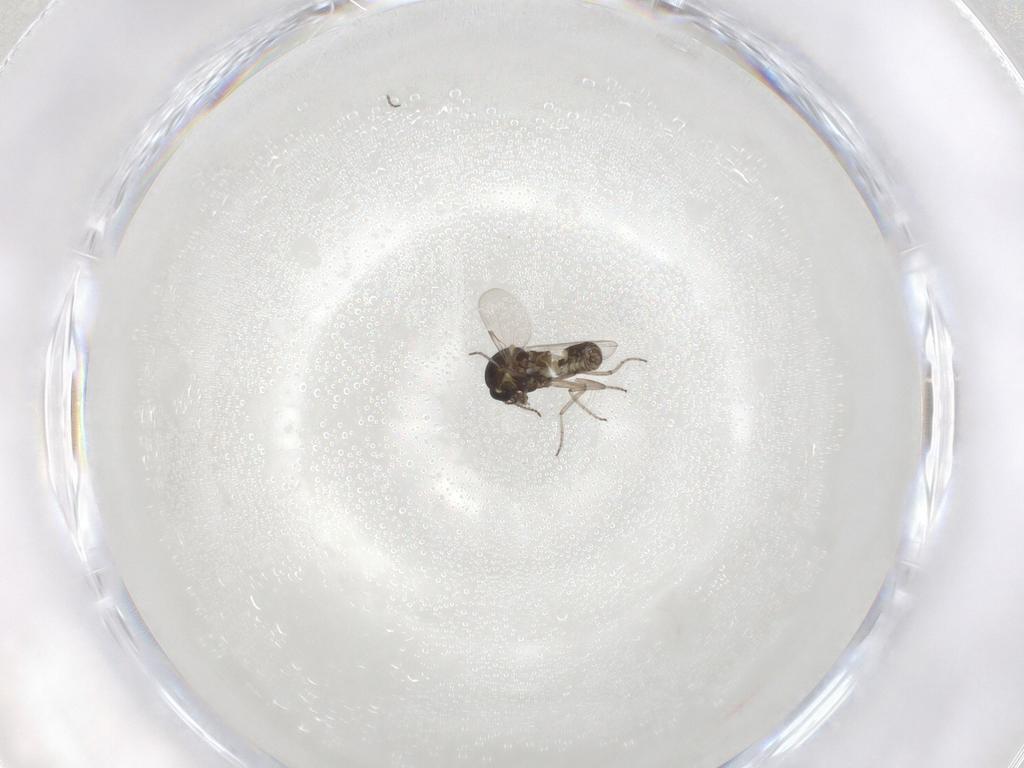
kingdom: Animalia
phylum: Arthropoda
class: Insecta
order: Diptera
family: Ceratopogonidae
